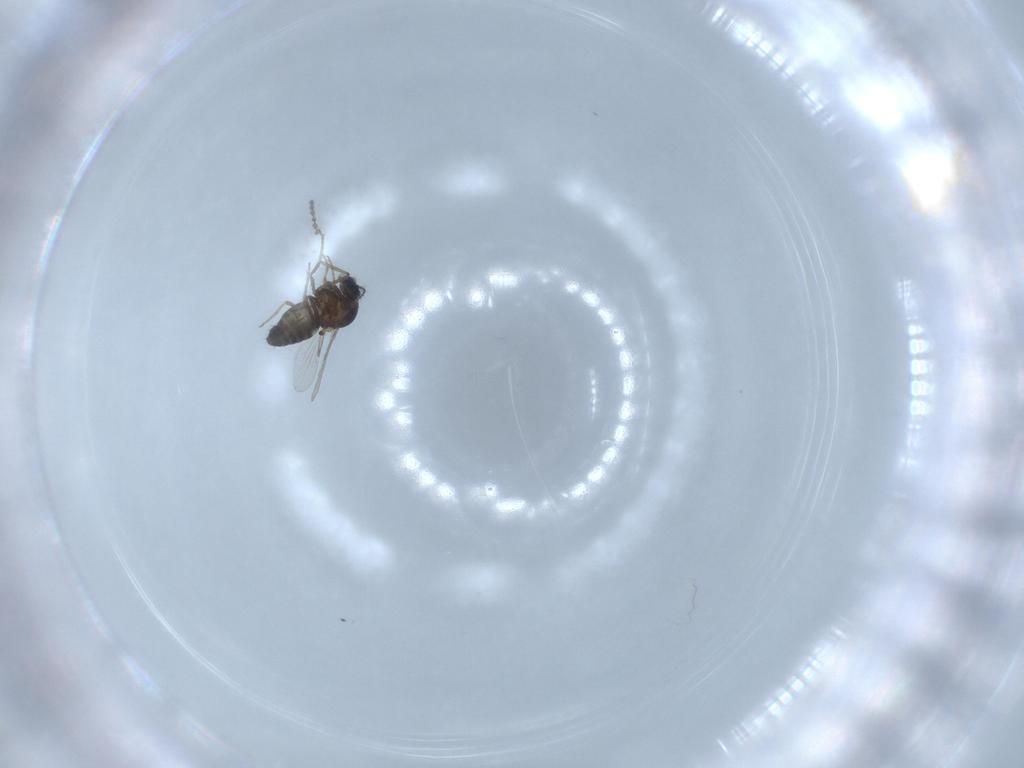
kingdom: Animalia
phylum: Arthropoda
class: Insecta
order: Diptera
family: Ceratopogonidae
